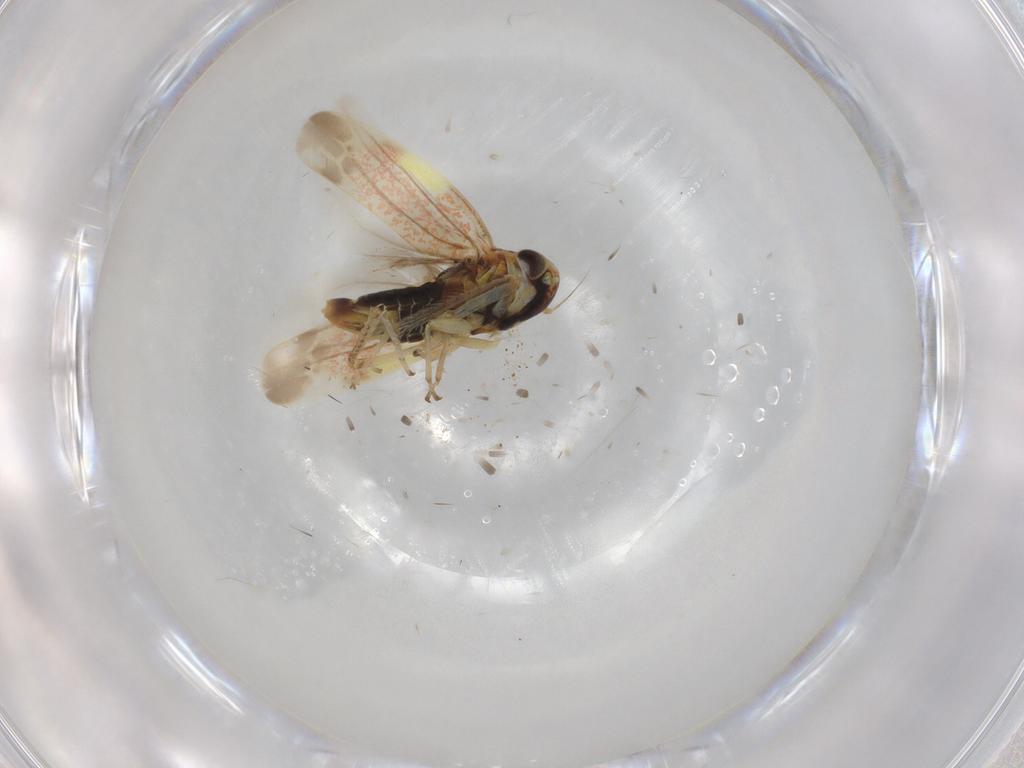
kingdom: Animalia
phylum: Arthropoda
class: Insecta
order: Hemiptera
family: Cicadellidae
